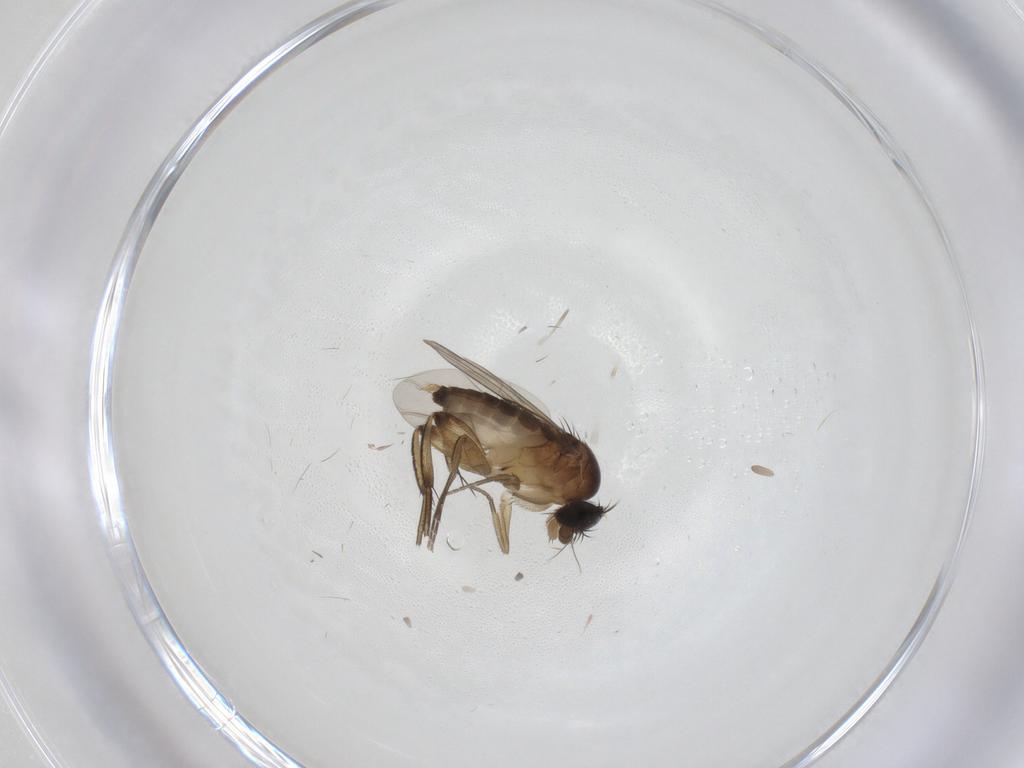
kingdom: Animalia
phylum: Arthropoda
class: Insecta
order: Diptera
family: Phoridae
